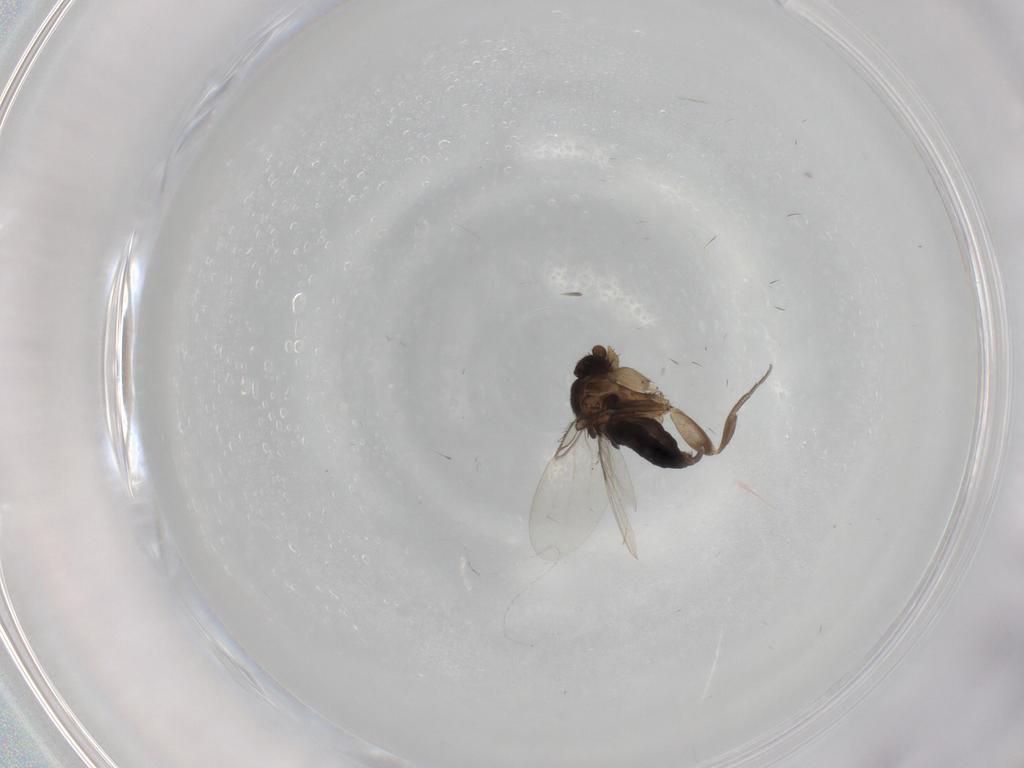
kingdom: Animalia
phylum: Arthropoda
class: Insecta
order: Diptera
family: Phoridae
